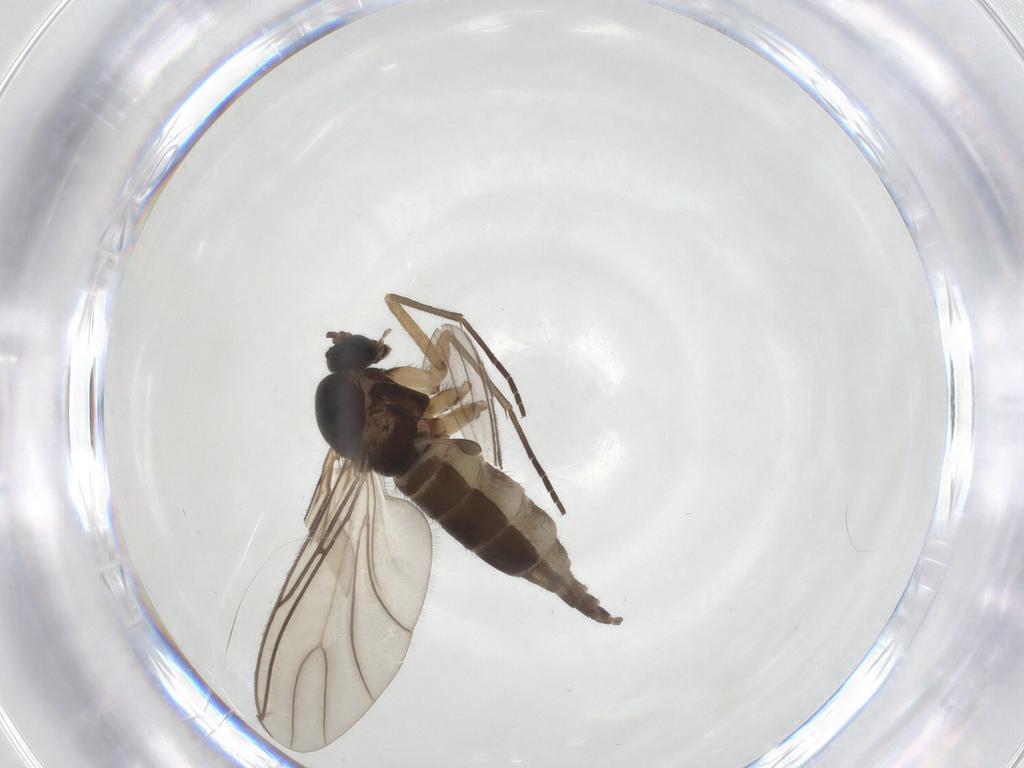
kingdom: Animalia
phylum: Arthropoda
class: Insecta
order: Diptera
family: Sciaridae
